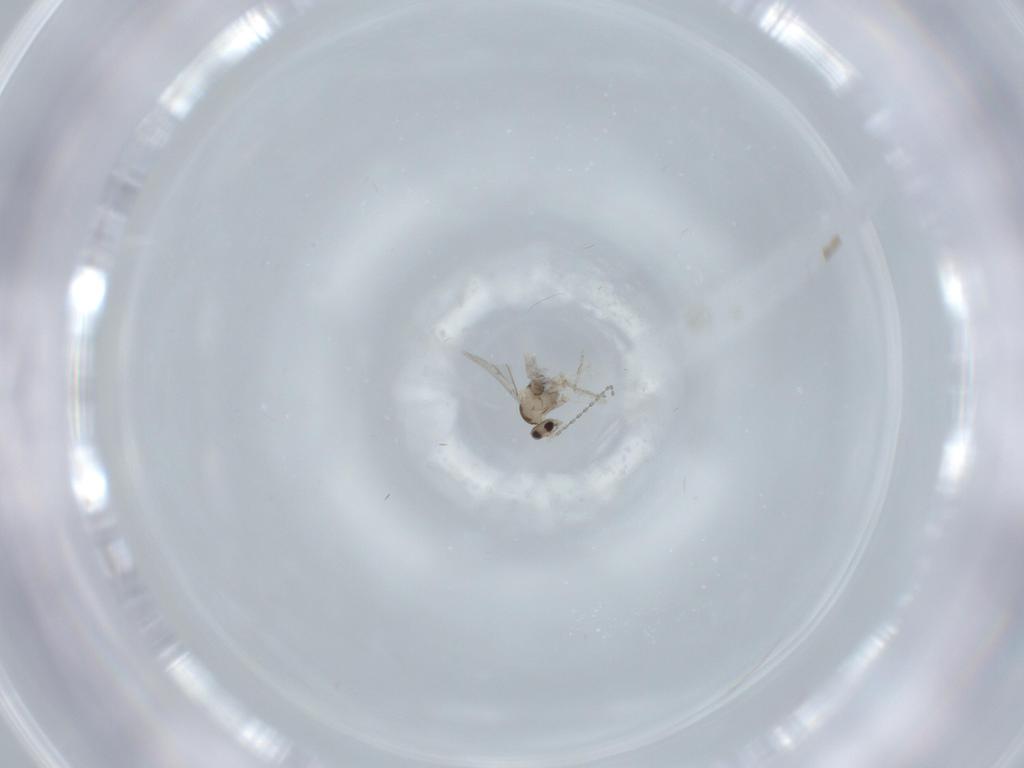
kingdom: Animalia
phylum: Arthropoda
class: Insecta
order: Diptera
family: Cecidomyiidae
